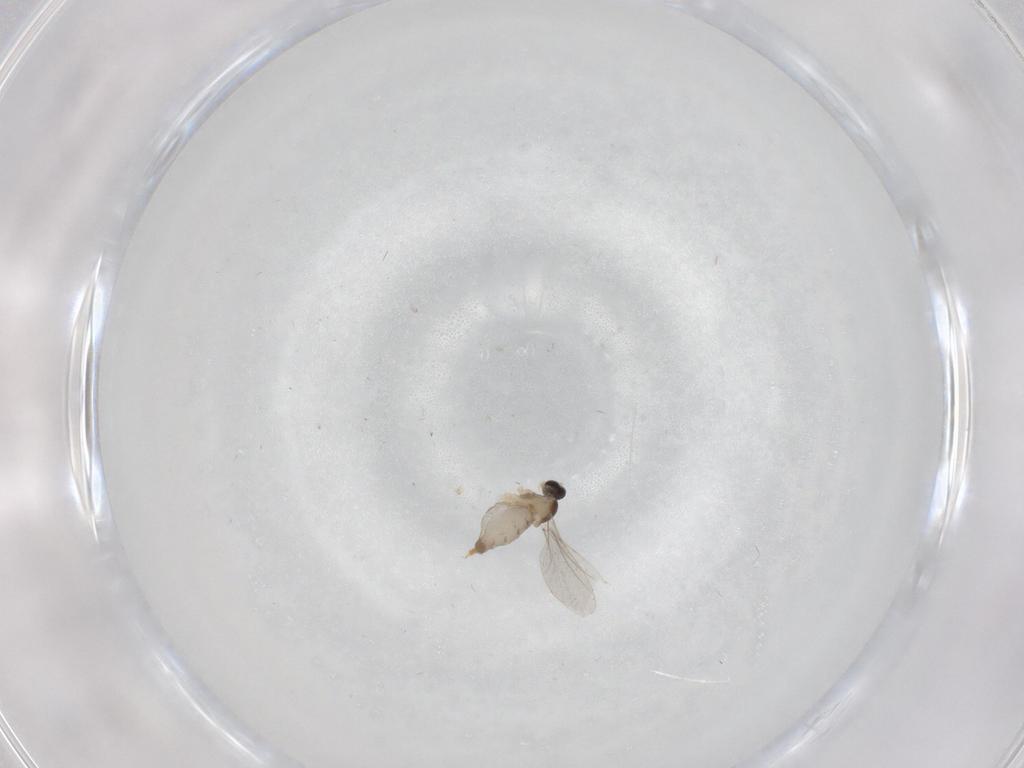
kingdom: Animalia
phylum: Arthropoda
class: Insecta
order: Diptera
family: Cecidomyiidae
